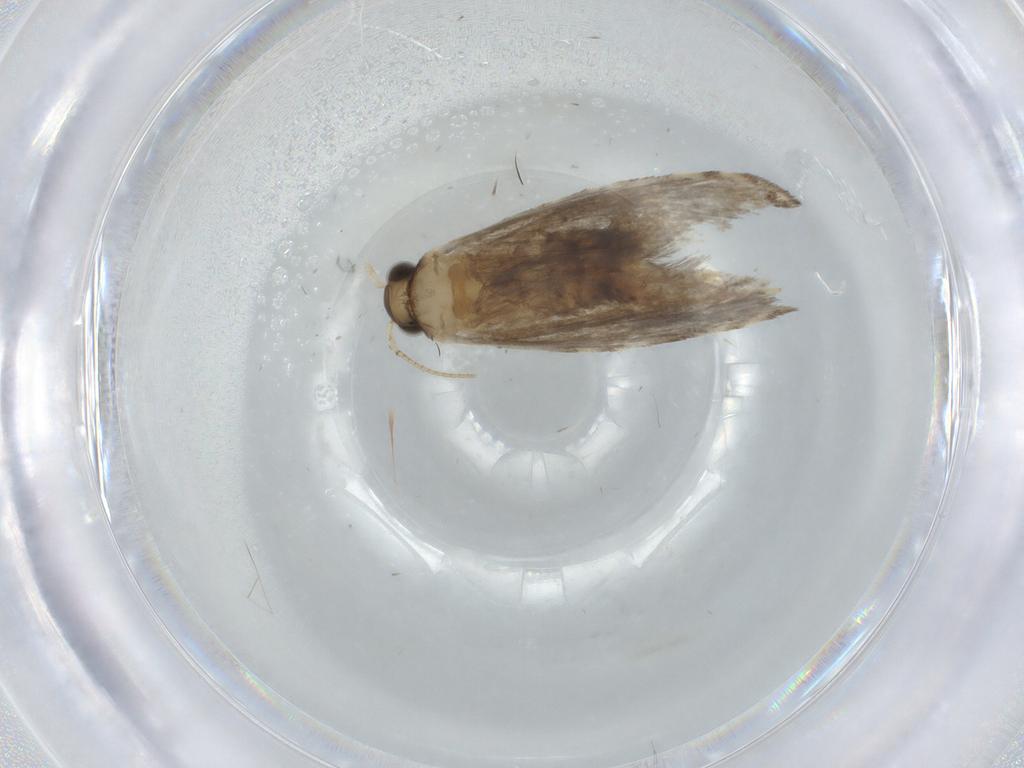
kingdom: Animalia
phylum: Arthropoda
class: Insecta
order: Lepidoptera
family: Tineidae
